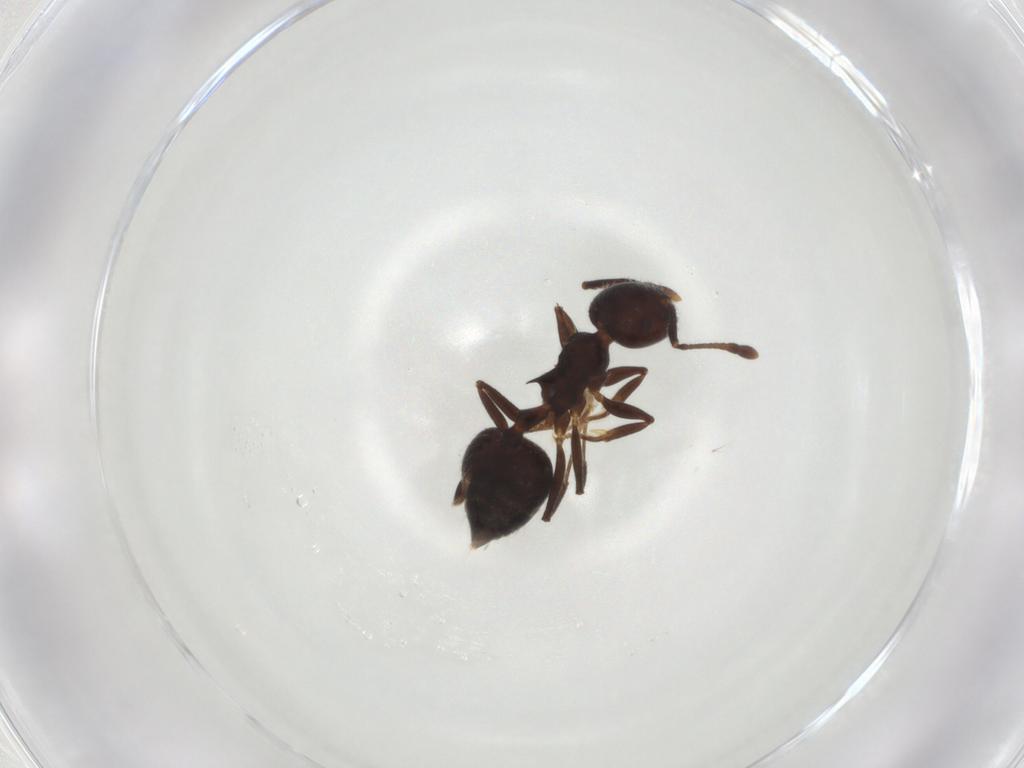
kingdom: Animalia
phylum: Arthropoda
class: Insecta
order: Hymenoptera
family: Formicidae
